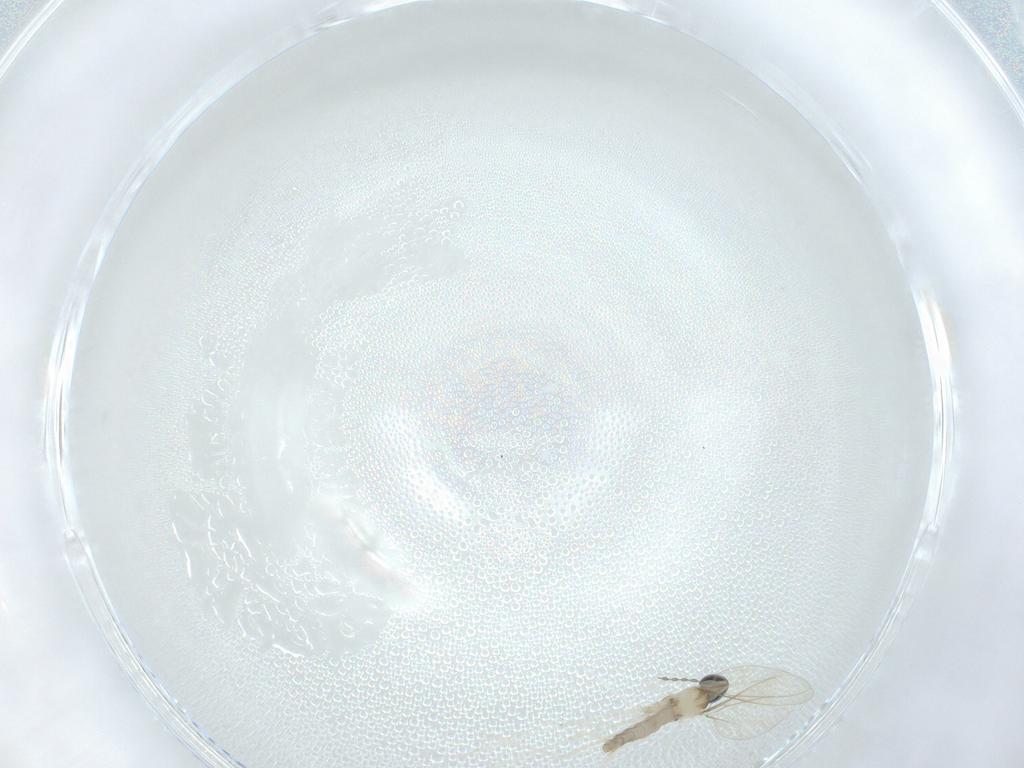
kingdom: Animalia
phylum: Arthropoda
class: Insecta
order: Diptera
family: Cecidomyiidae
